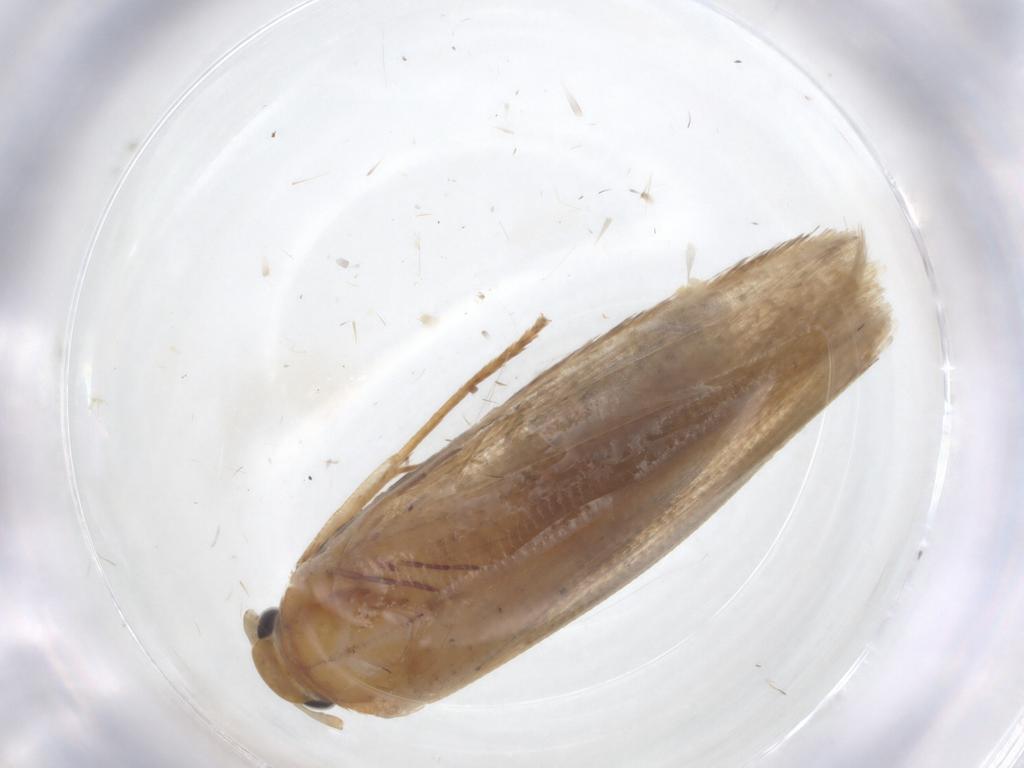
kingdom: Animalia
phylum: Arthropoda
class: Insecta
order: Lepidoptera
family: Stathmopodidae
